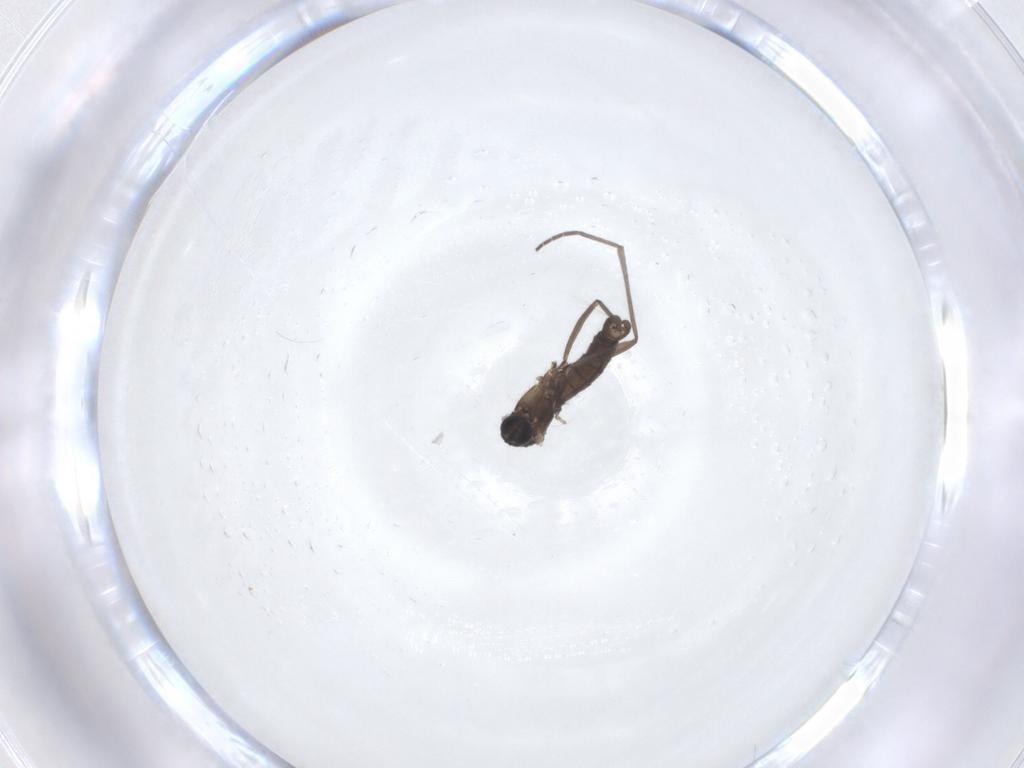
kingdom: Animalia
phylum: Arthropoda
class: Insecta
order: Diptera
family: Sciaridae
